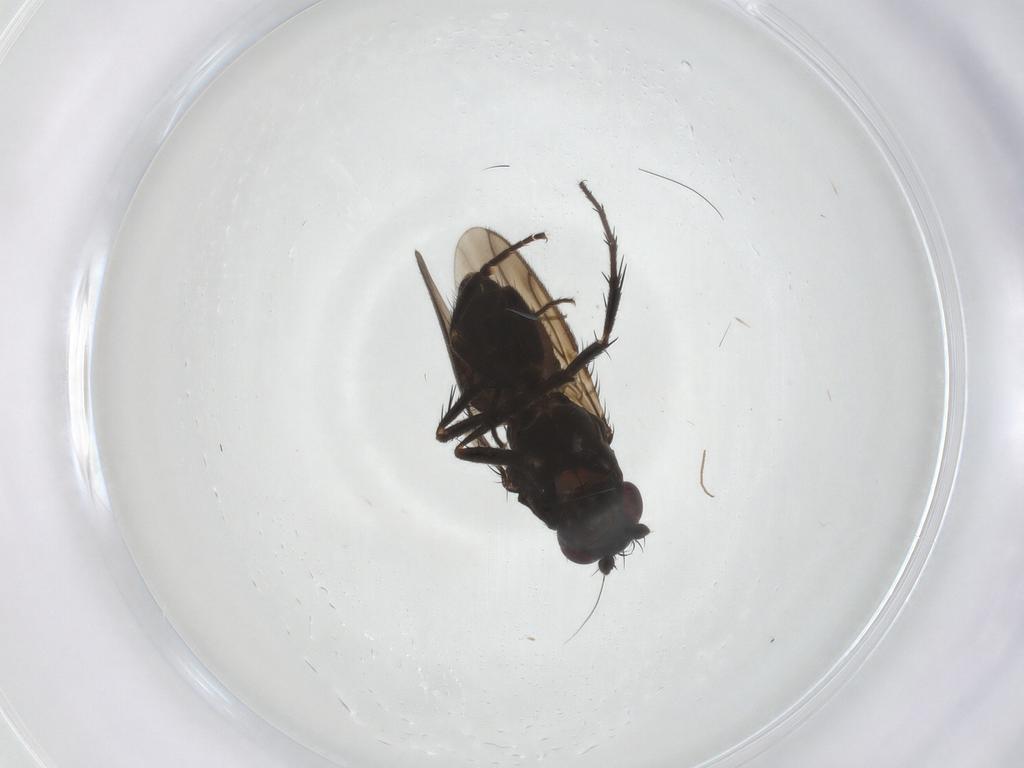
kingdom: Animalia
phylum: Arthropoda
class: Insecta
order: Diptera
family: Sphaeroceridae
